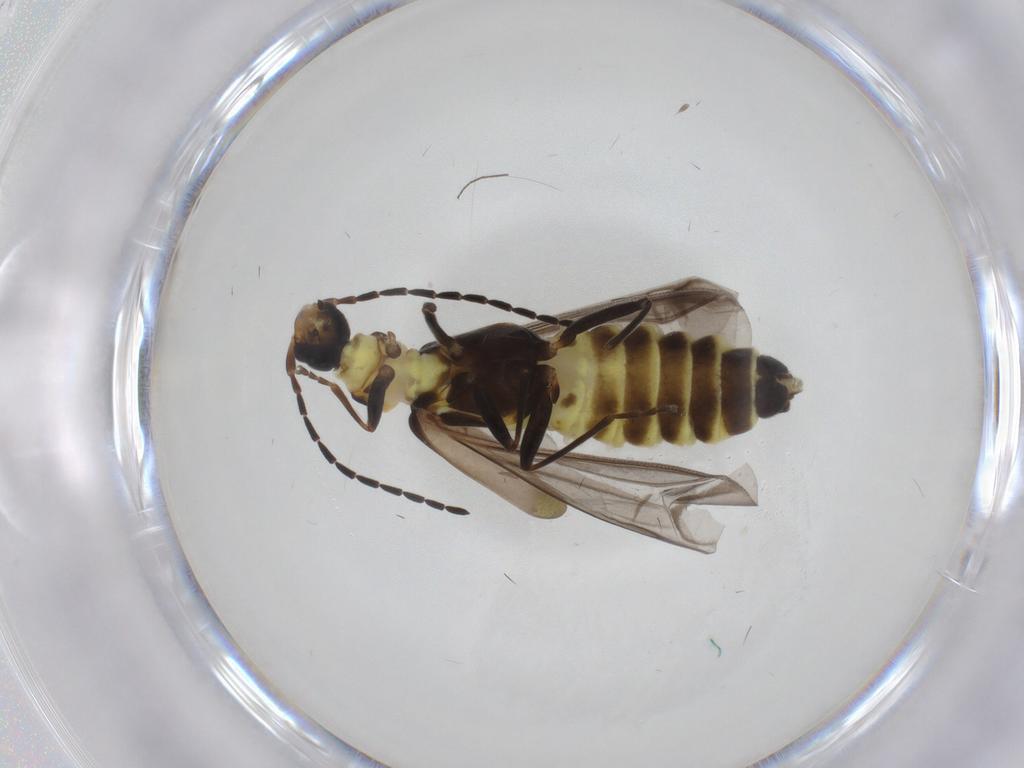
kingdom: Animalia
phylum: Arthropoda
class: Insecta
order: Coleoptera
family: Cantharidae
